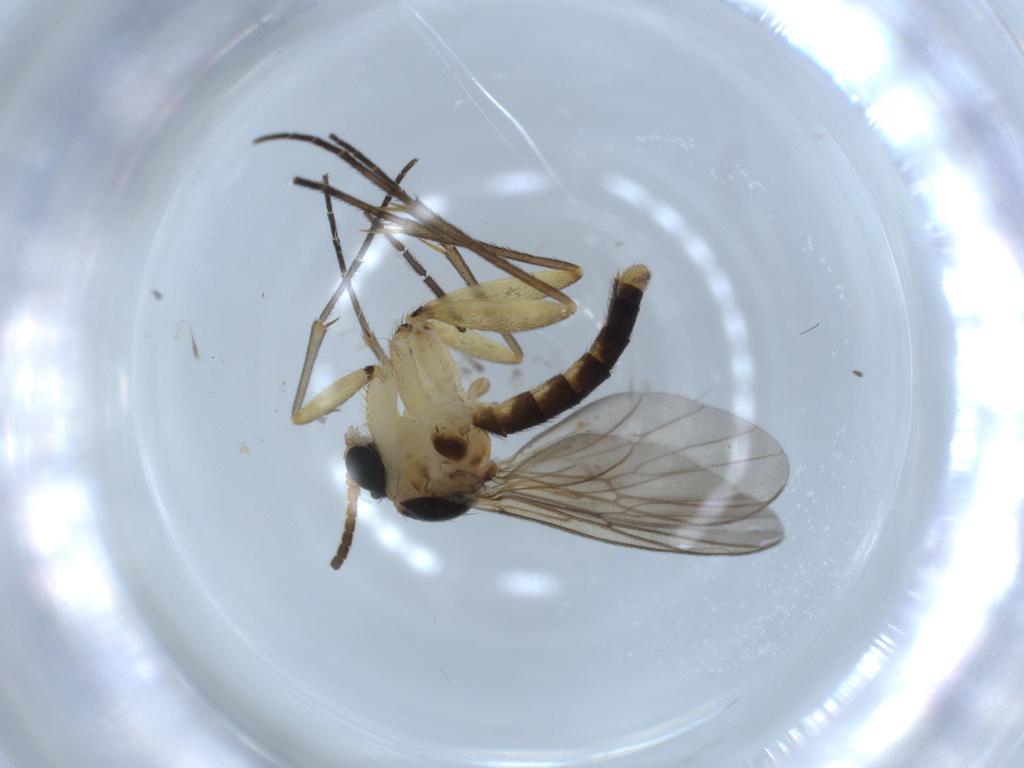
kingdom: Animalia
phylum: Arthropoda
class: Insecta
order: Diptera
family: Sciaridae
